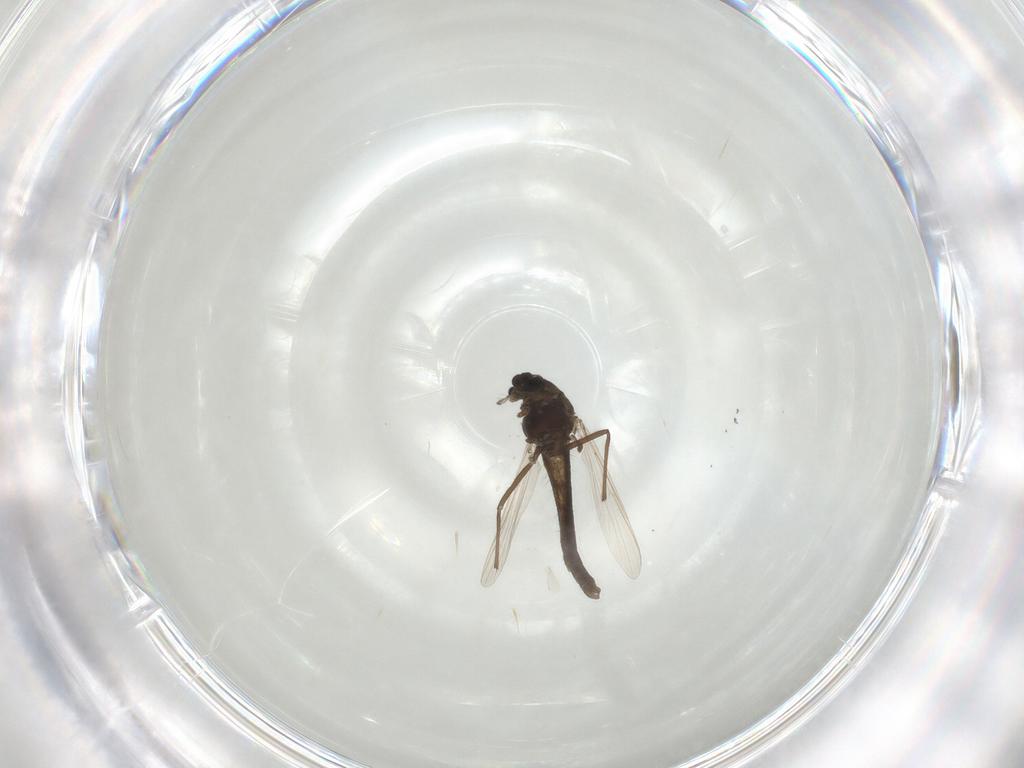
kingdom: Animalia
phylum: Arthropoda
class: Insecta
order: Diptera
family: Chironomidae
